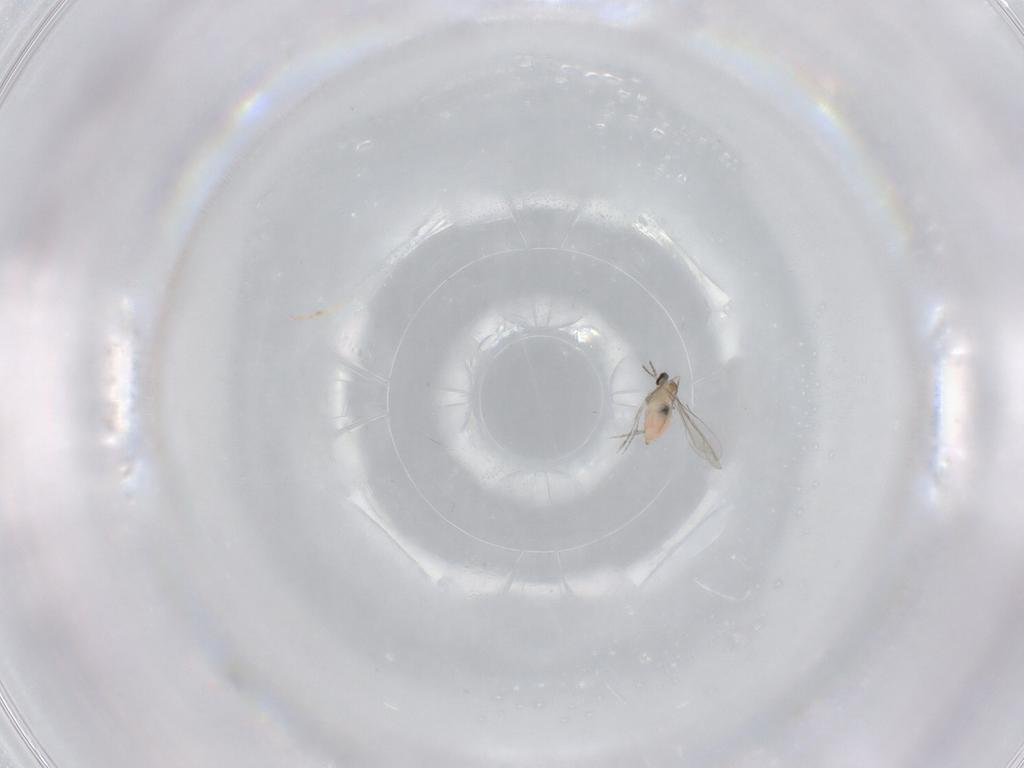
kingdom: Animalia
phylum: Arthropoda
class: Insecta
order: Diptera
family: Cecidomyiidae
